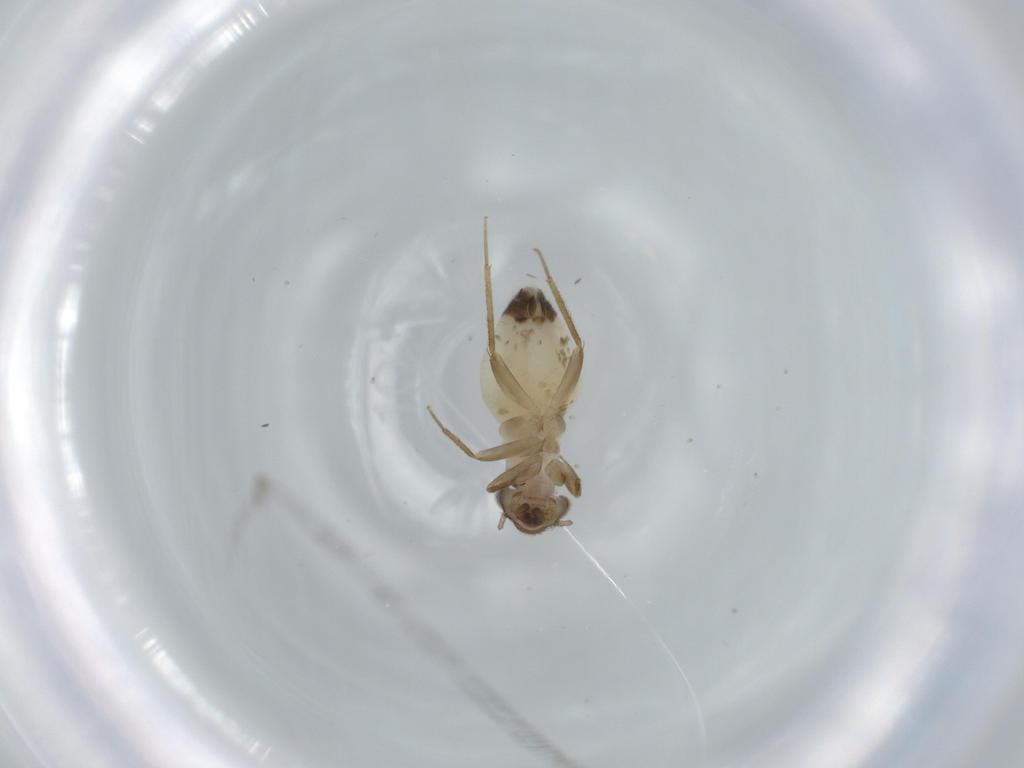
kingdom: Animalia
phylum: Arthropoda
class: Insecta
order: Psocodea
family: Lepidopsocidae
